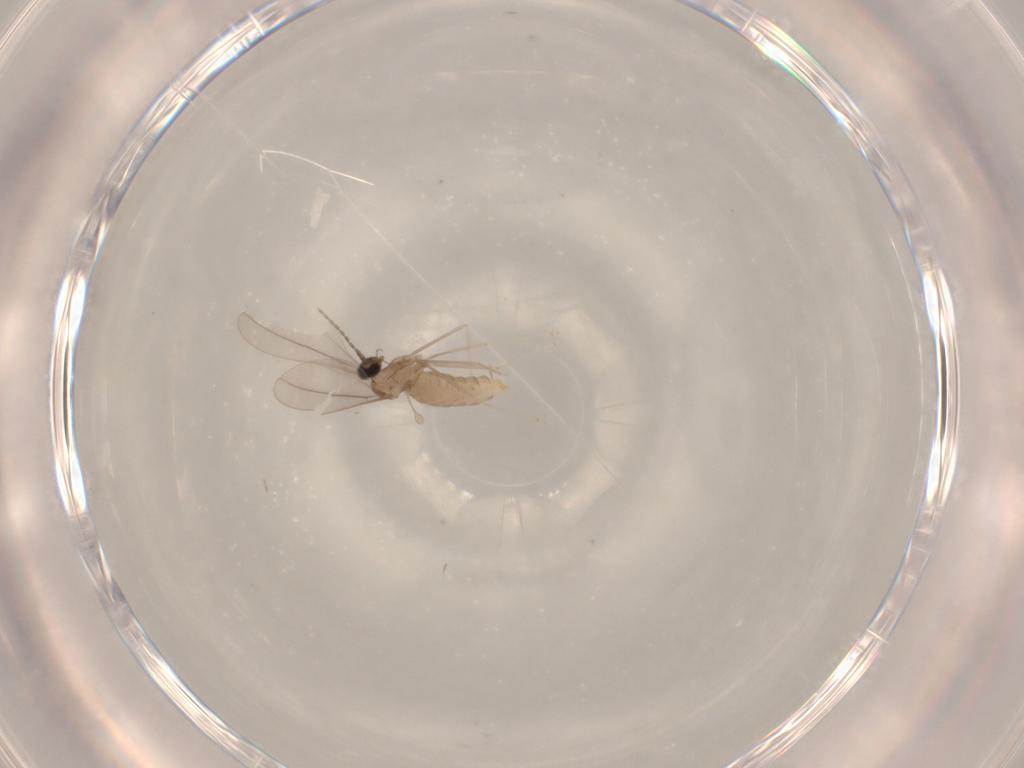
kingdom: Animalia
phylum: Arthropoda
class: Insecta
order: Diptera
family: Cecidomyiidae
